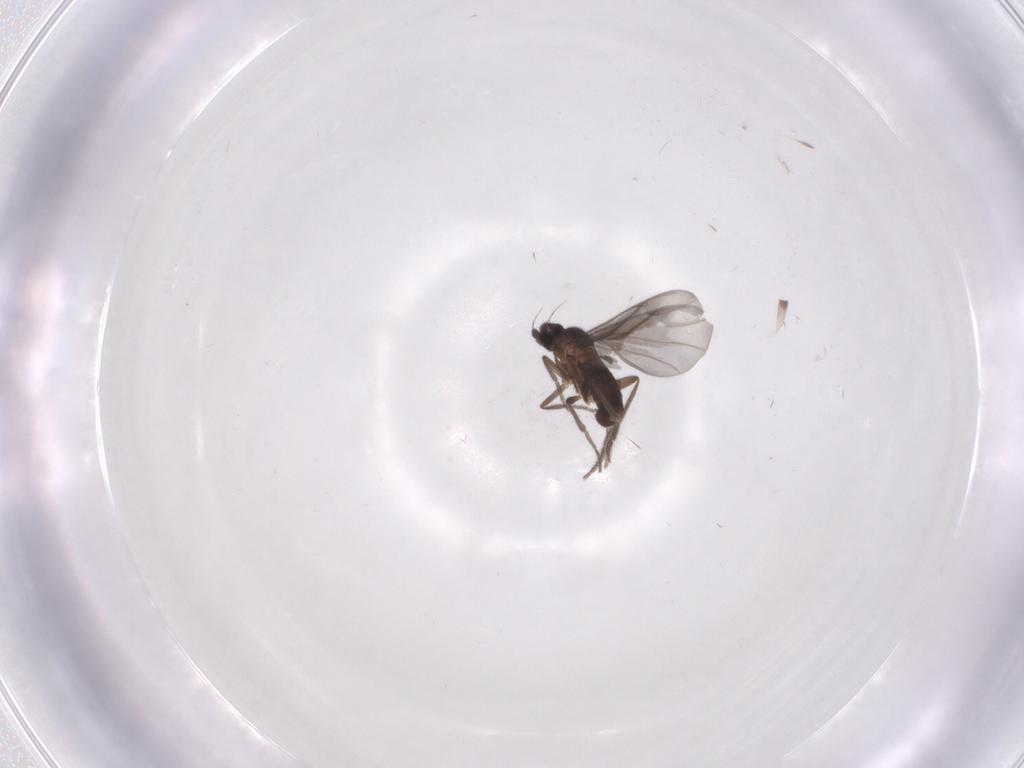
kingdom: Animalia
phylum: Arthropoda
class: Insecta
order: Diptera
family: Phoridae
